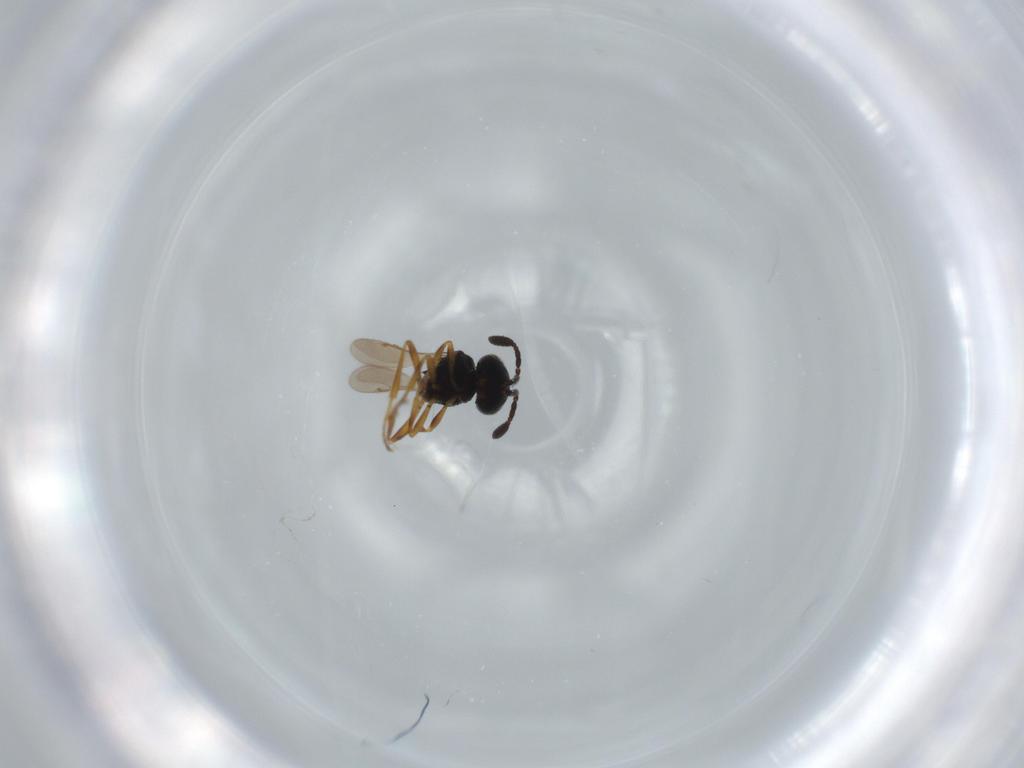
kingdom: Animalia
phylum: Arthropoda
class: Insecta
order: Hymenoptera
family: Scelionidae
